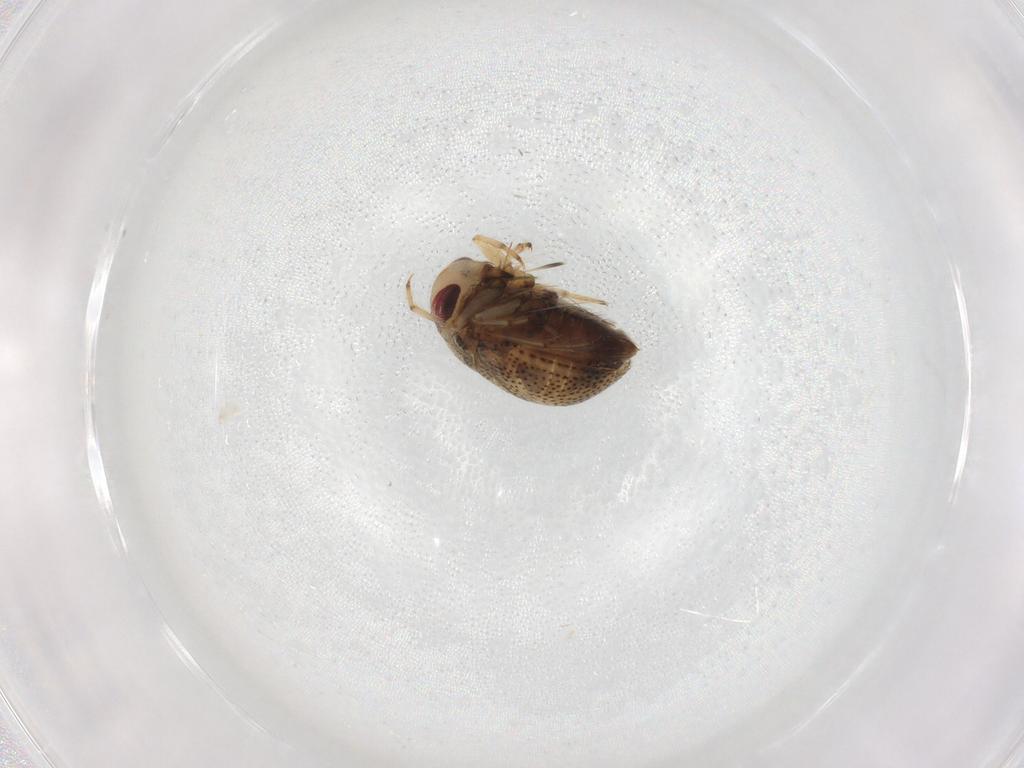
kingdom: Animalia
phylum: Arthropoda
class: Insecta
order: Hemiptera
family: Pleidae
